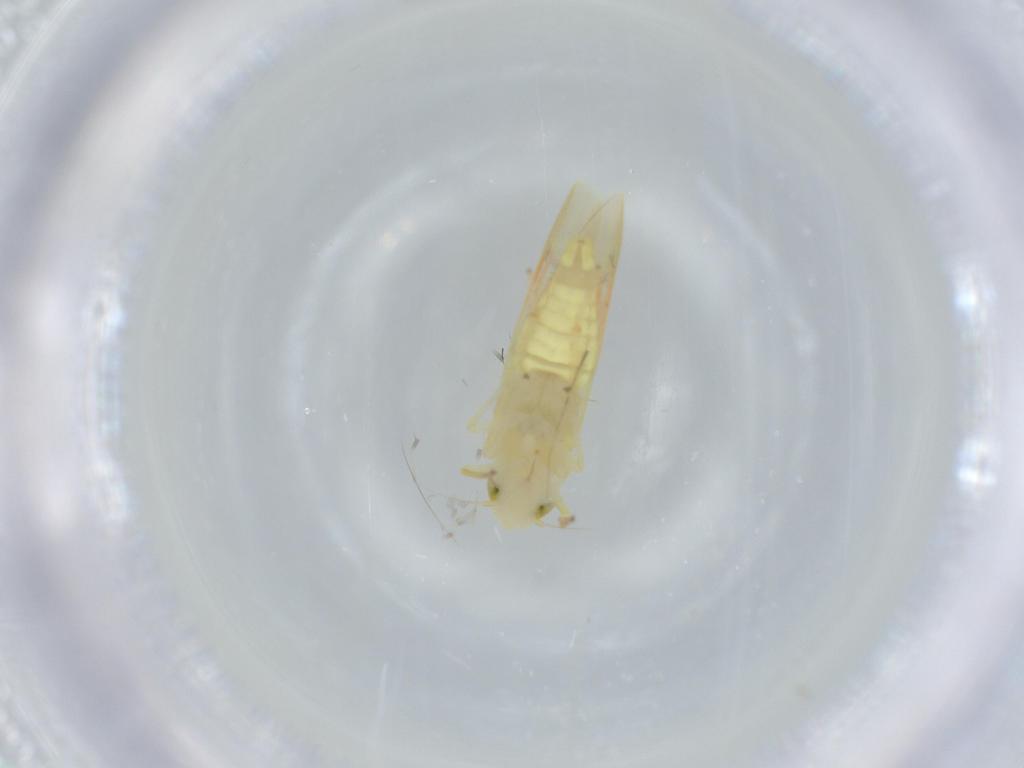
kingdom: Animalia
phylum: Arthropoda
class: Insecta
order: Hemiptera
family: Cicadellidae
